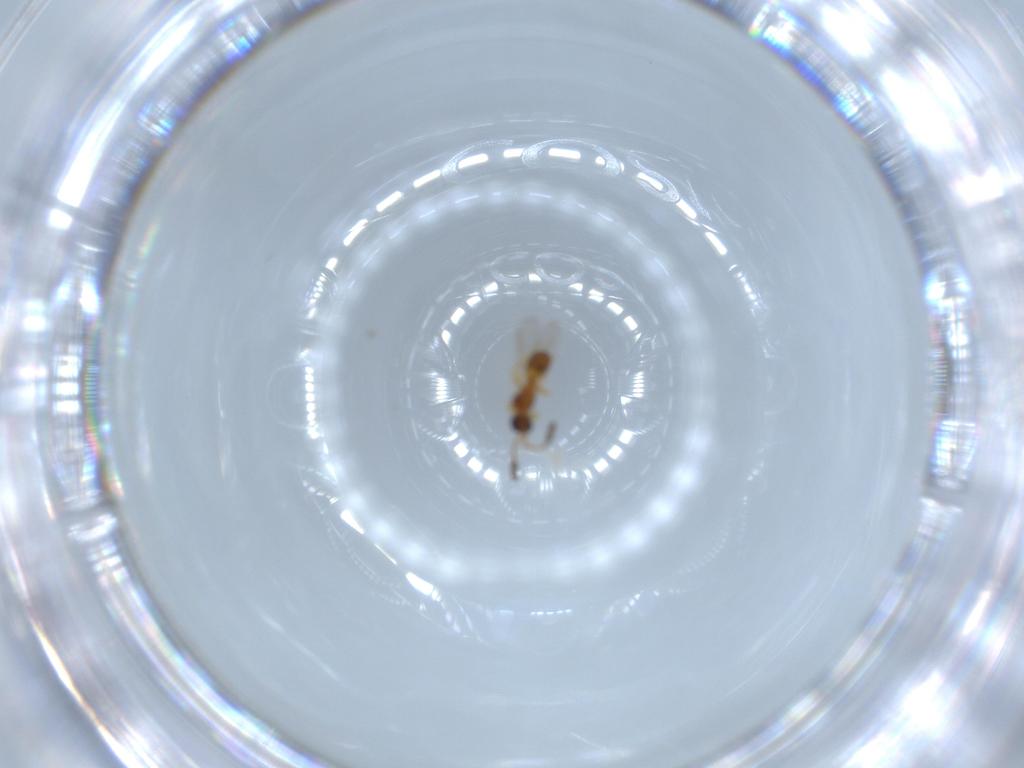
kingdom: Animalia
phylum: Arthropoda
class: Insecta
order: Hymenoptera
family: Diapriidae
